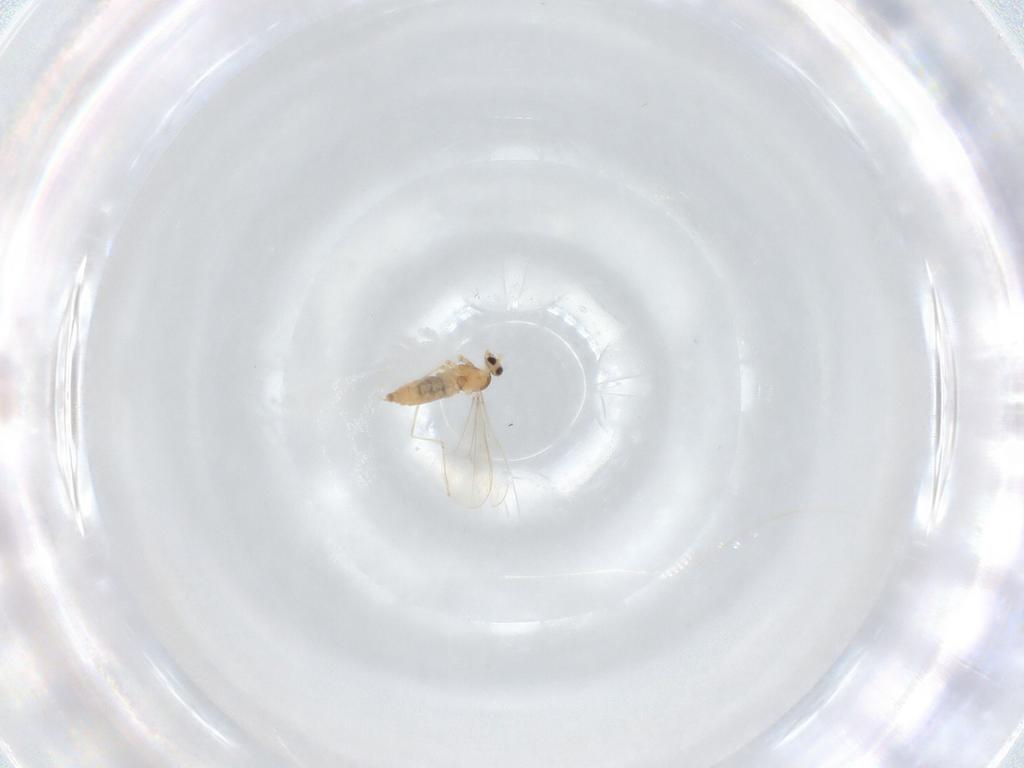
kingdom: Animalia
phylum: Arthropoda
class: Insecta
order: Diptera
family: Cecidomyiidae
